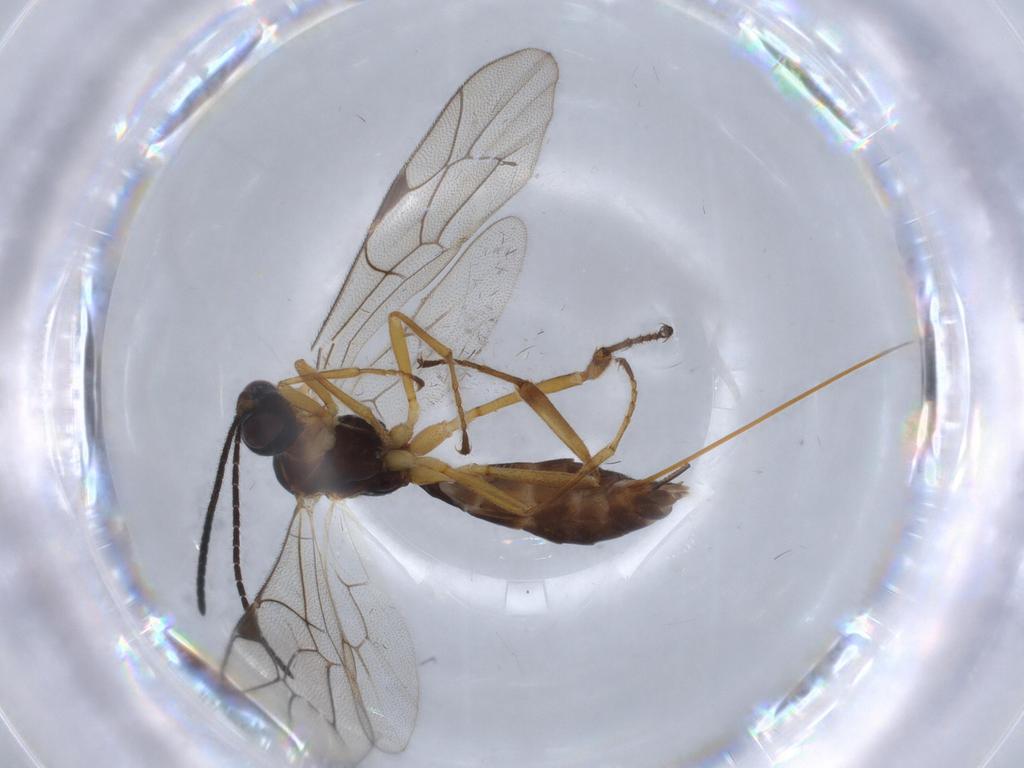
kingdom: Animalia
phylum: Arthropoda
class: Insecta
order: Hymenoptera
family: Ichneumonidae
